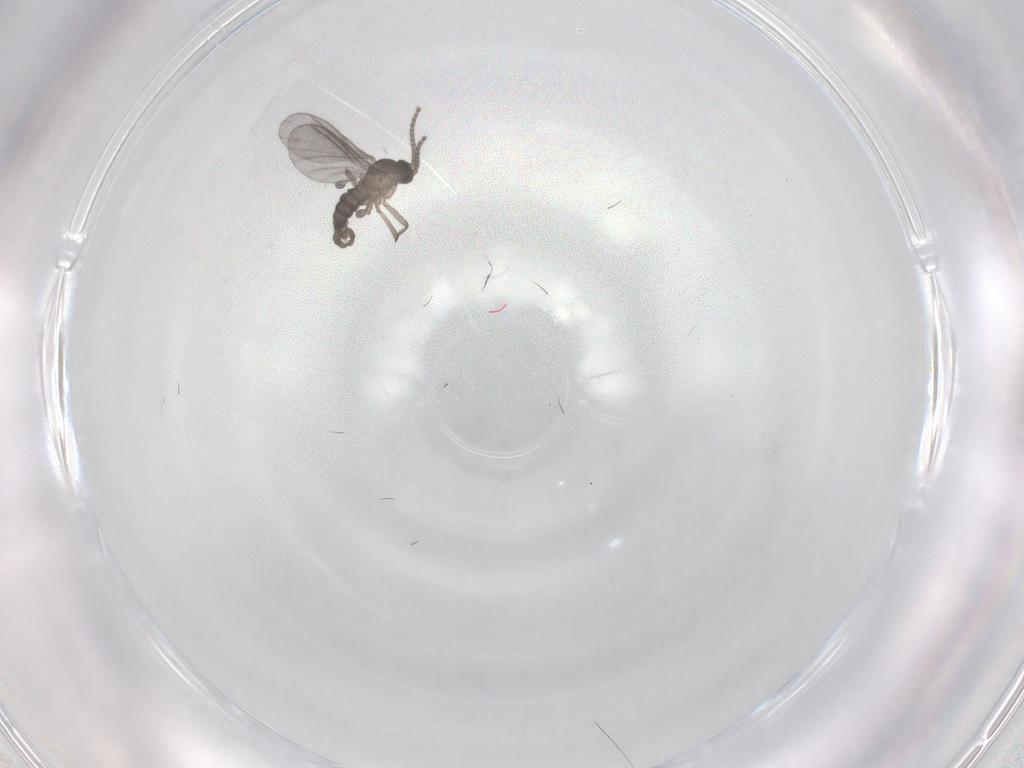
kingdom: Animalia
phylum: Arthropoda
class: Insecta
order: Diptera
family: Sciaridae
